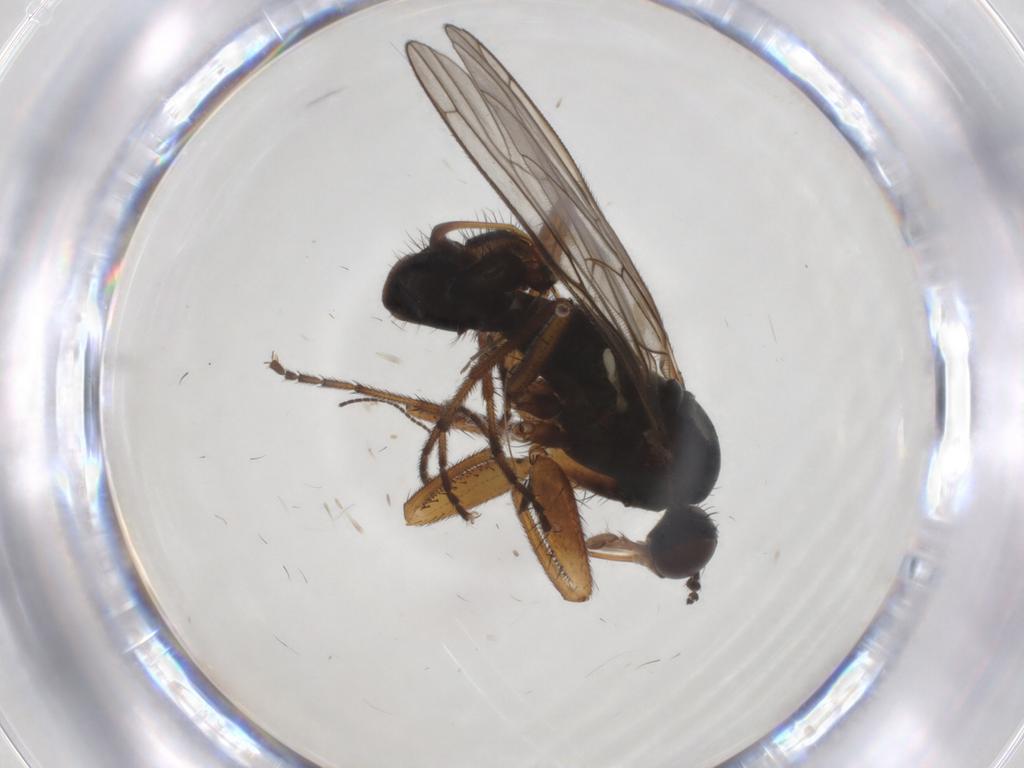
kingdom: Animalia
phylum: Arthropoda
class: Insecta
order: Diptera
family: Empididae
